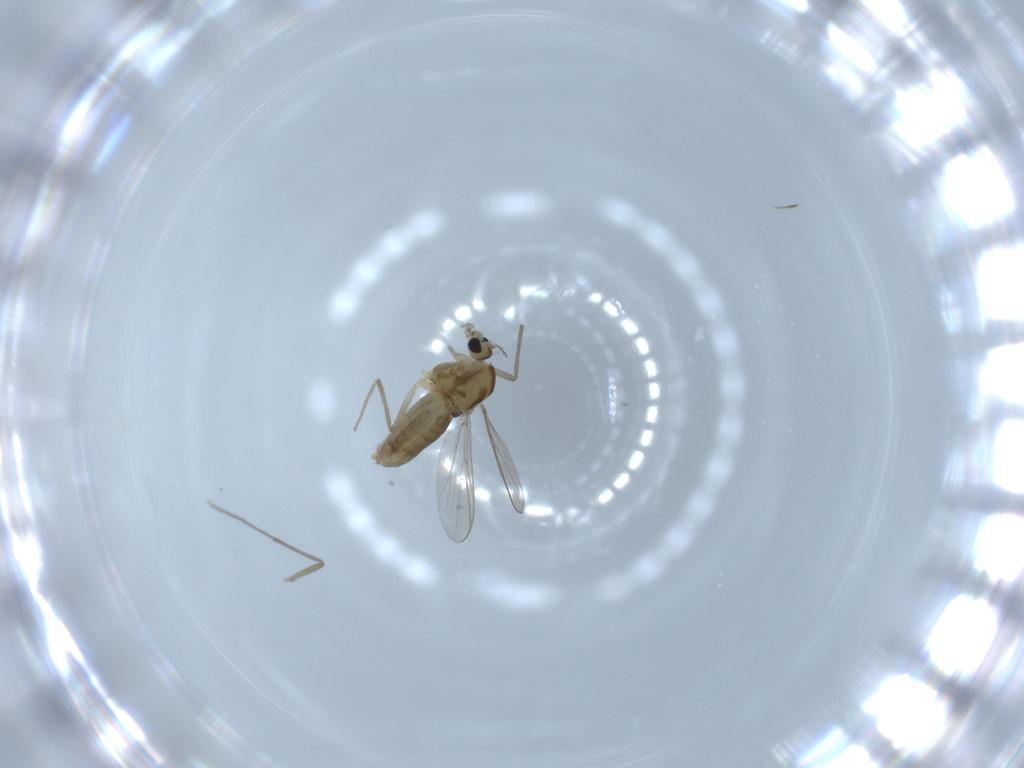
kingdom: Animalia
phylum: Arthropoda
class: Insecta
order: Diptera
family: Chironomidae
